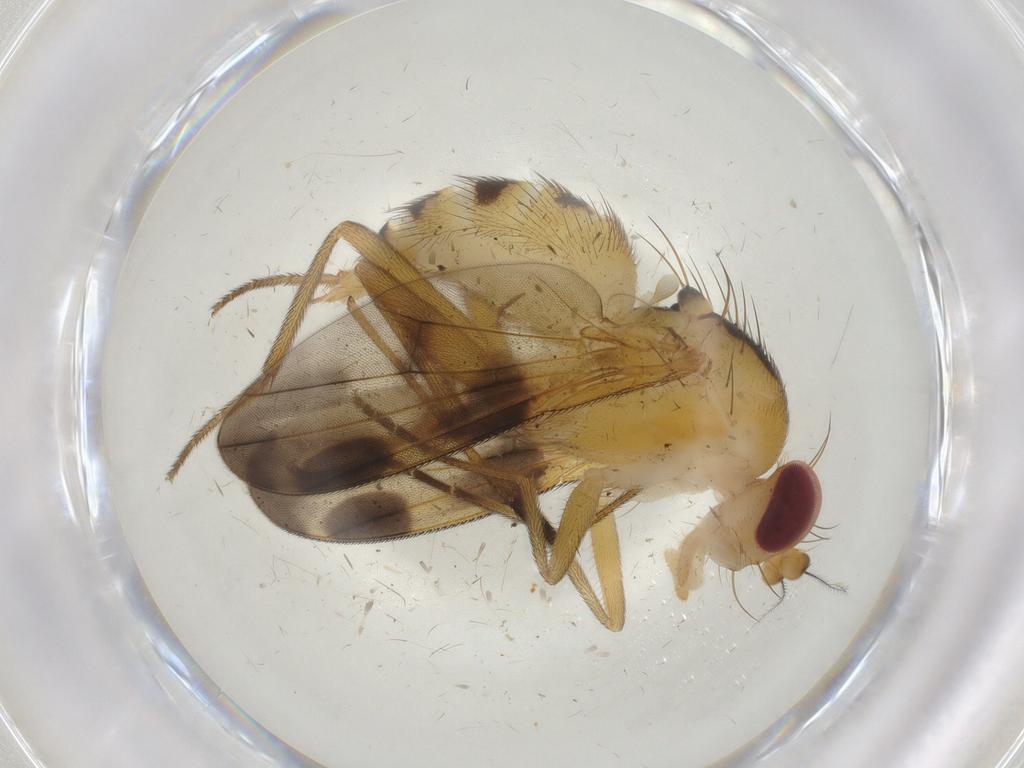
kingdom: Animalia
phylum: Arthropoda
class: Insecta
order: Diptera
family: Clusiidae
